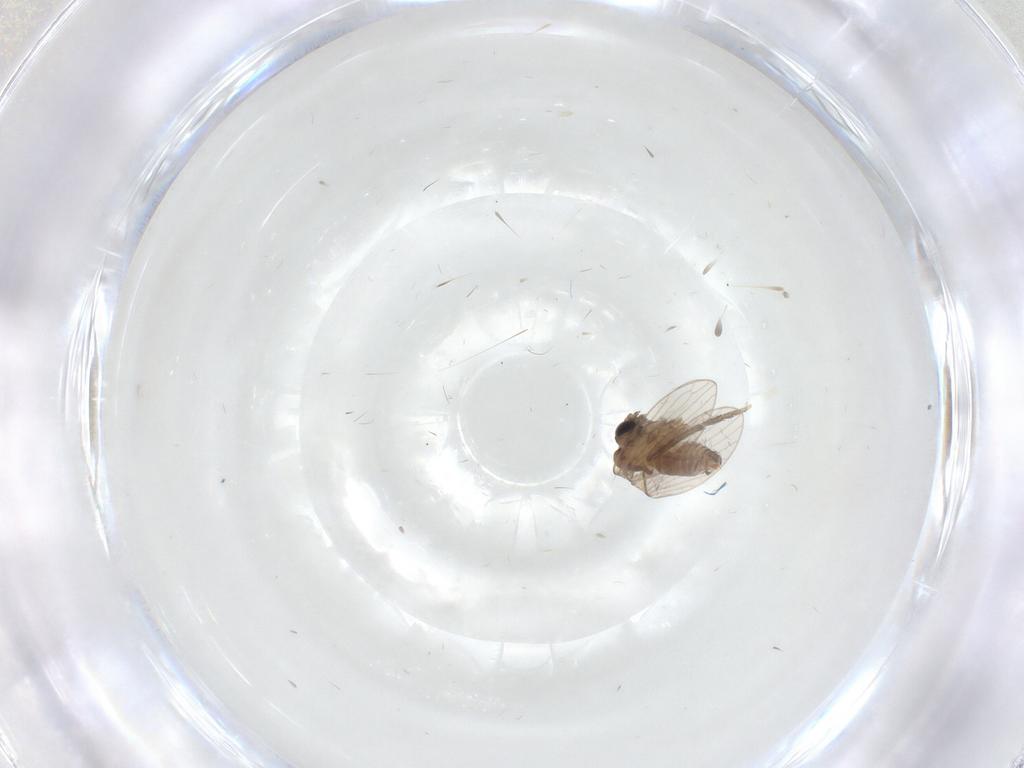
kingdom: Animalia
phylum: Arthropoda
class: Insecta
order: Diptera
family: Psychodidae
